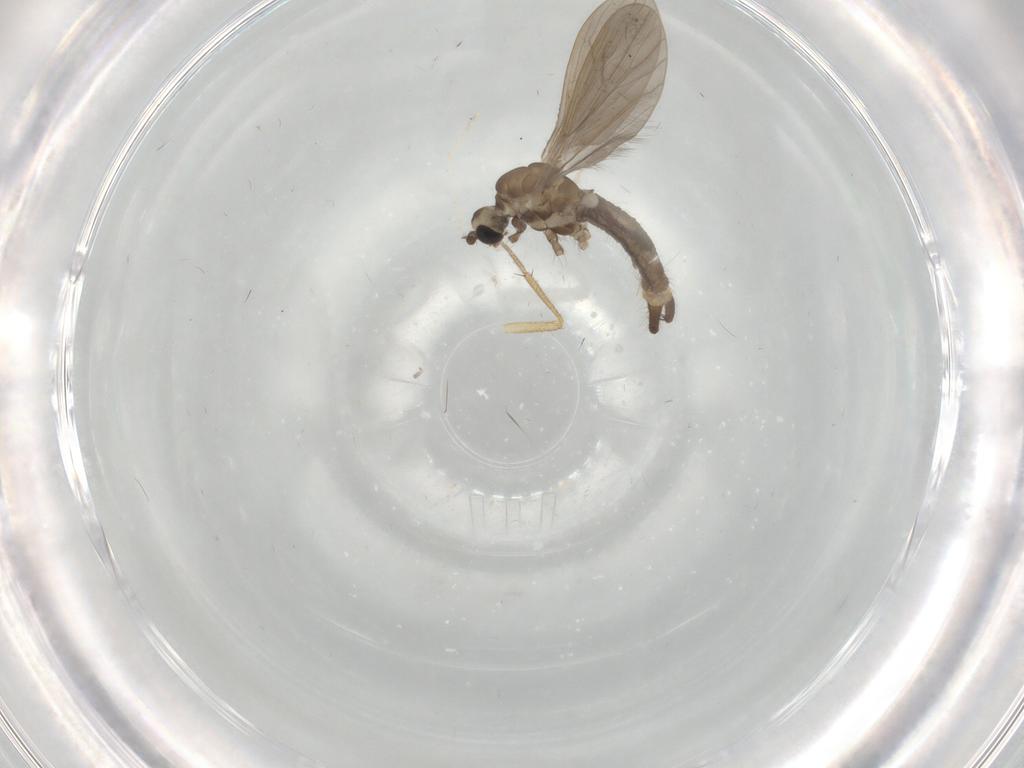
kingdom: Animalia
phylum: Arthropoda
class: Insecta
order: Diptera
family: Limoniidae
